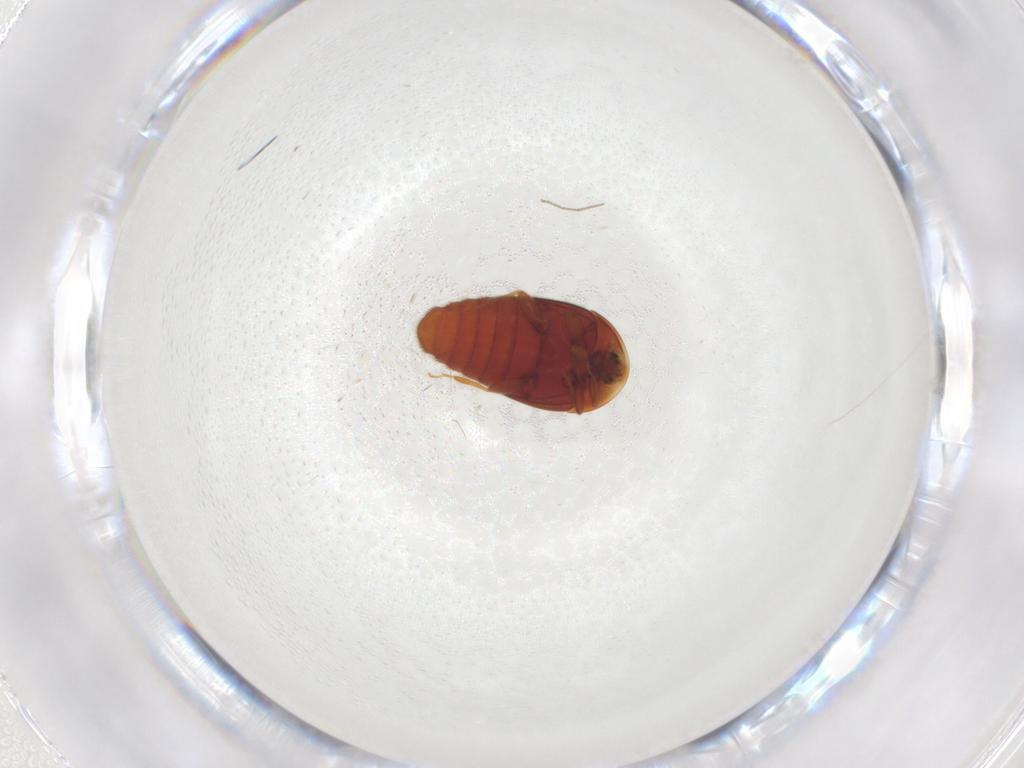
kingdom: Animalia
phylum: Arthropoda
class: Insecta
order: Coleoptera
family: Corylophidae
